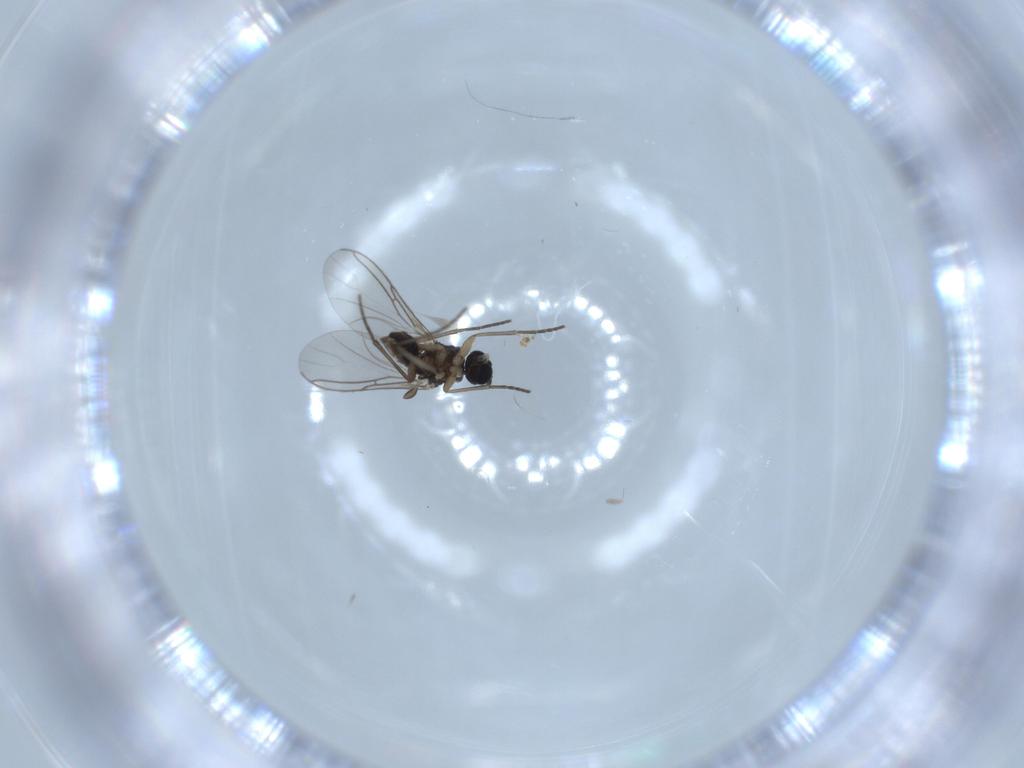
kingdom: Animalia
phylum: Arthropoda
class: Insecta
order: Diptera
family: Sciaridae
